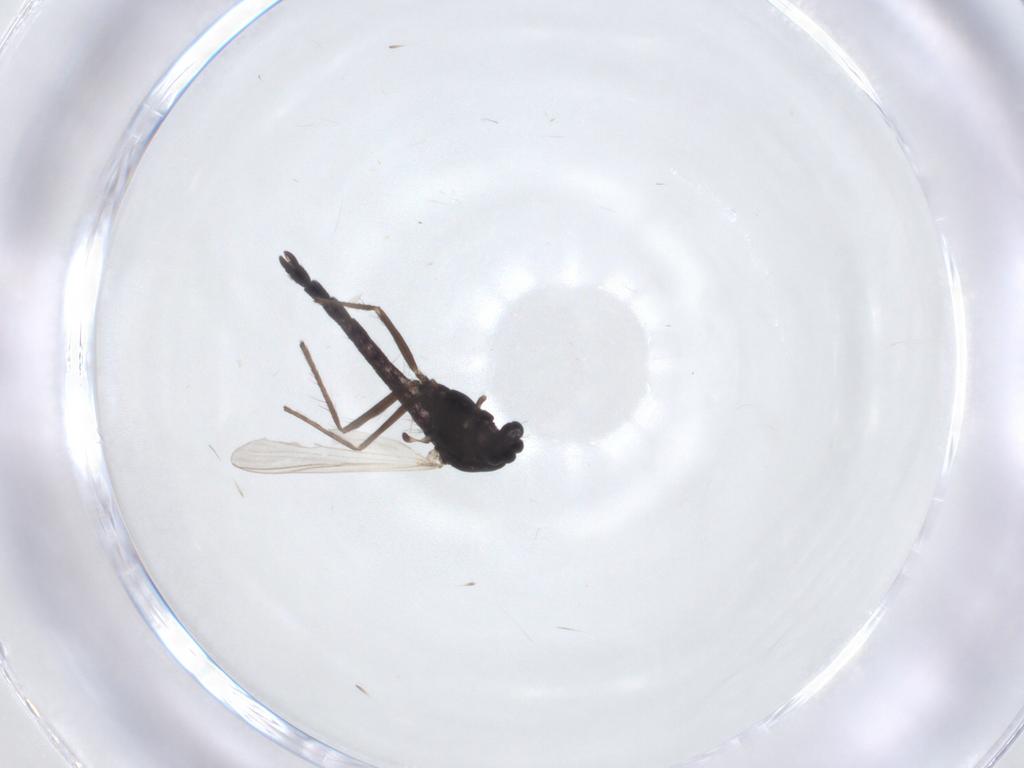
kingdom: Animalia
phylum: Arthropoda
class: Insecta
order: Diptera
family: Chironomidae
